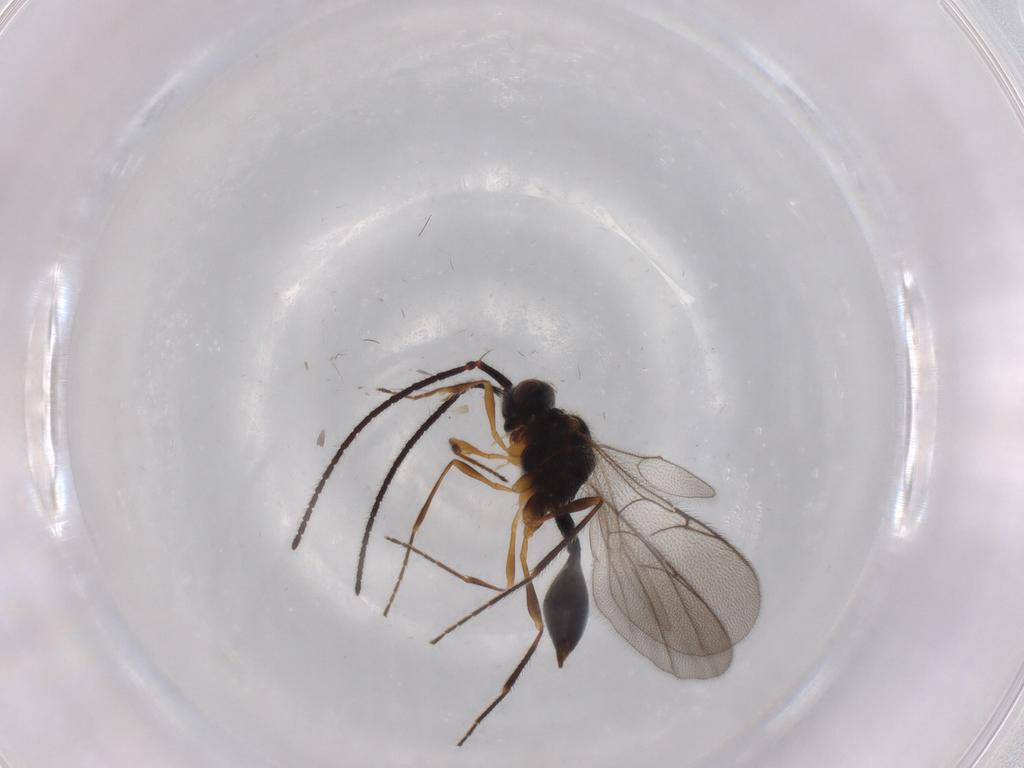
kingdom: Animalia
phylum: Arthropoda
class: Insecta
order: Hymenoptera
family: Diapriidae
